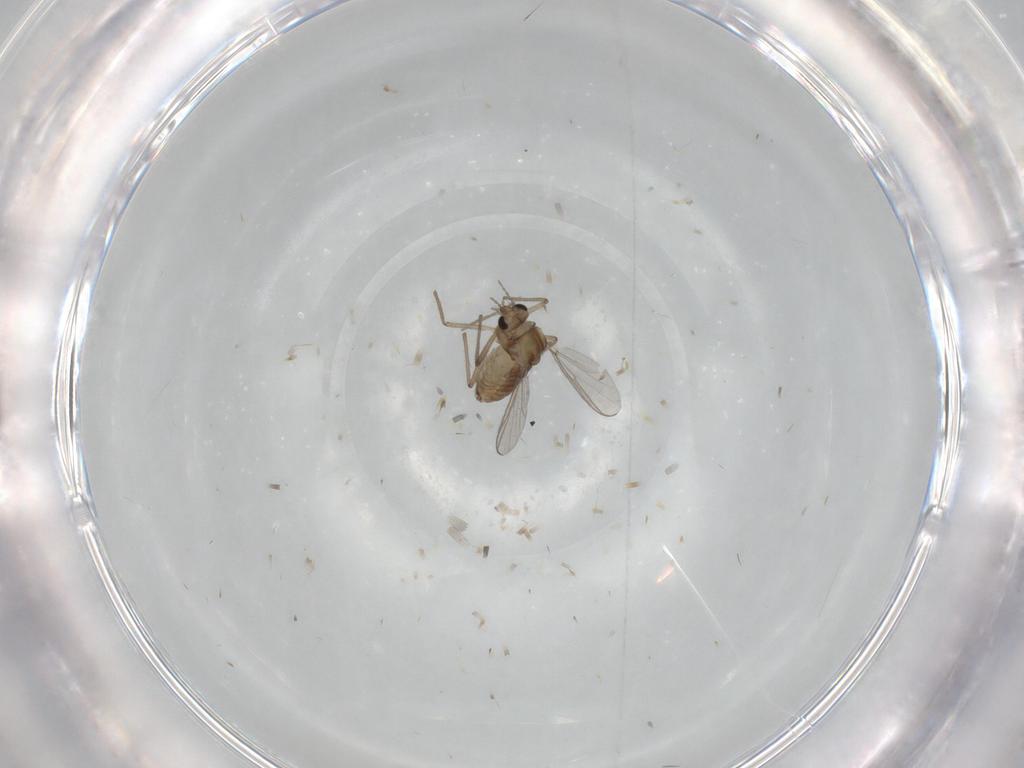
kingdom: Animalia
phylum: Arthropoda
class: Insecta
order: Diptera
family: Chironomidae
